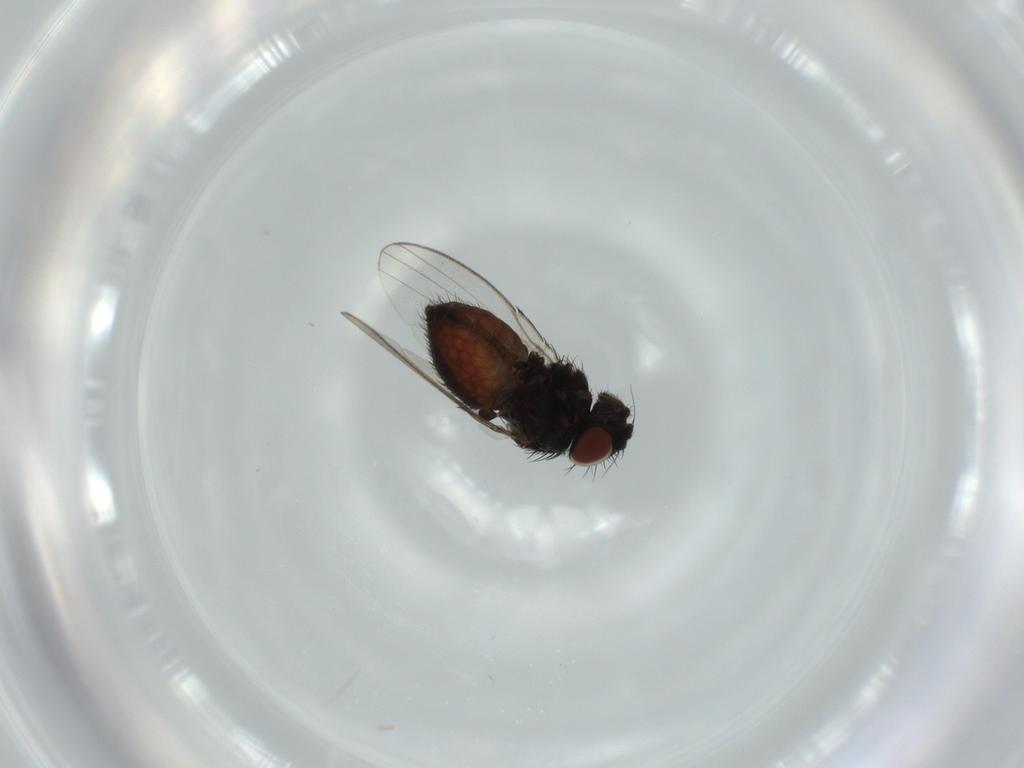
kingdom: Animalia
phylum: Arthropoda
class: Insecta
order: Diptera
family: Milichiidae
